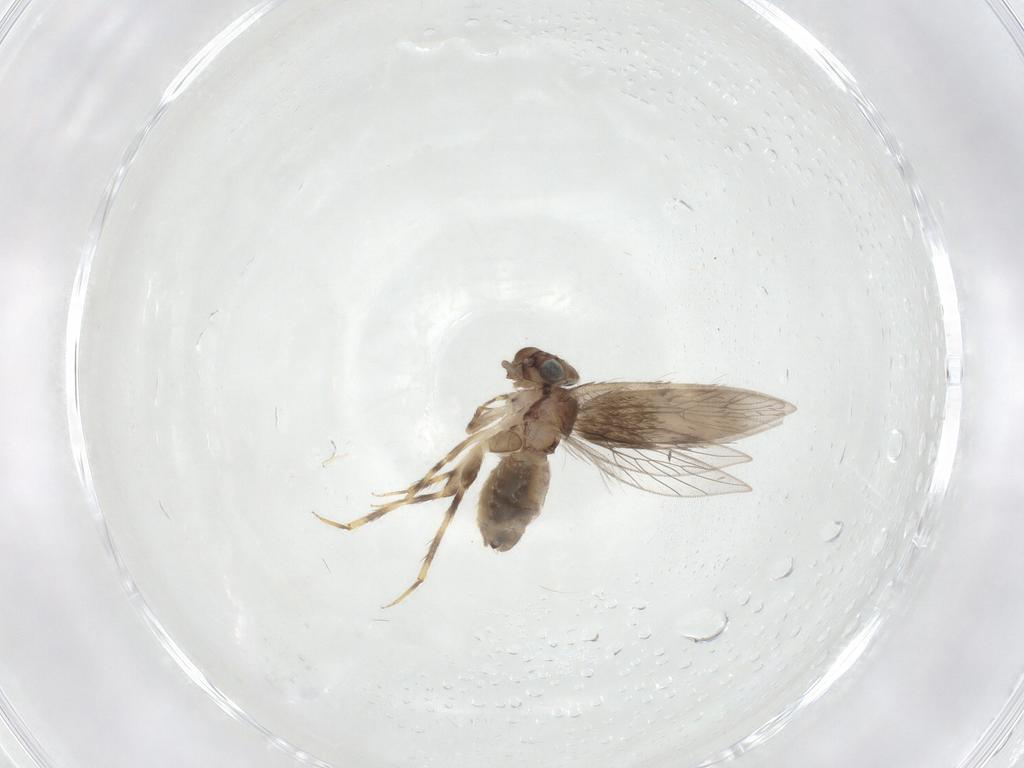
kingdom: Animalia
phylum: Arthropoda
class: Insecta
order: Psocodea
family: Lepidopsocidae
